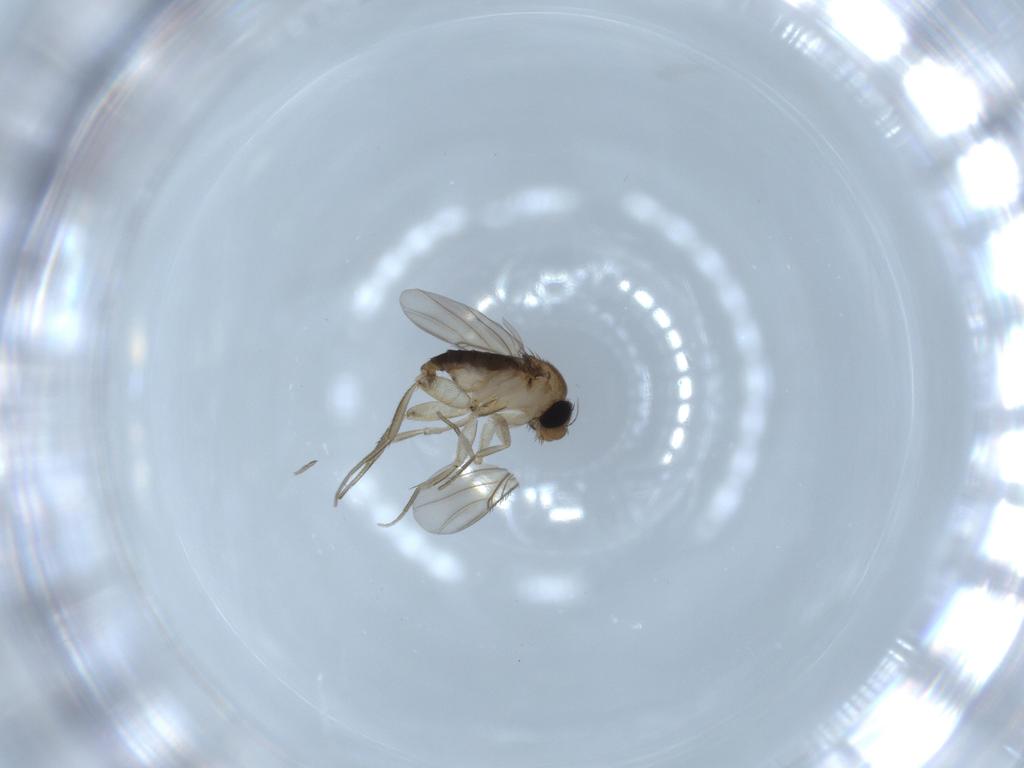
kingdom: Animalia
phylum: Arthropoda
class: Insecta
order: Diptera
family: Phoridae
